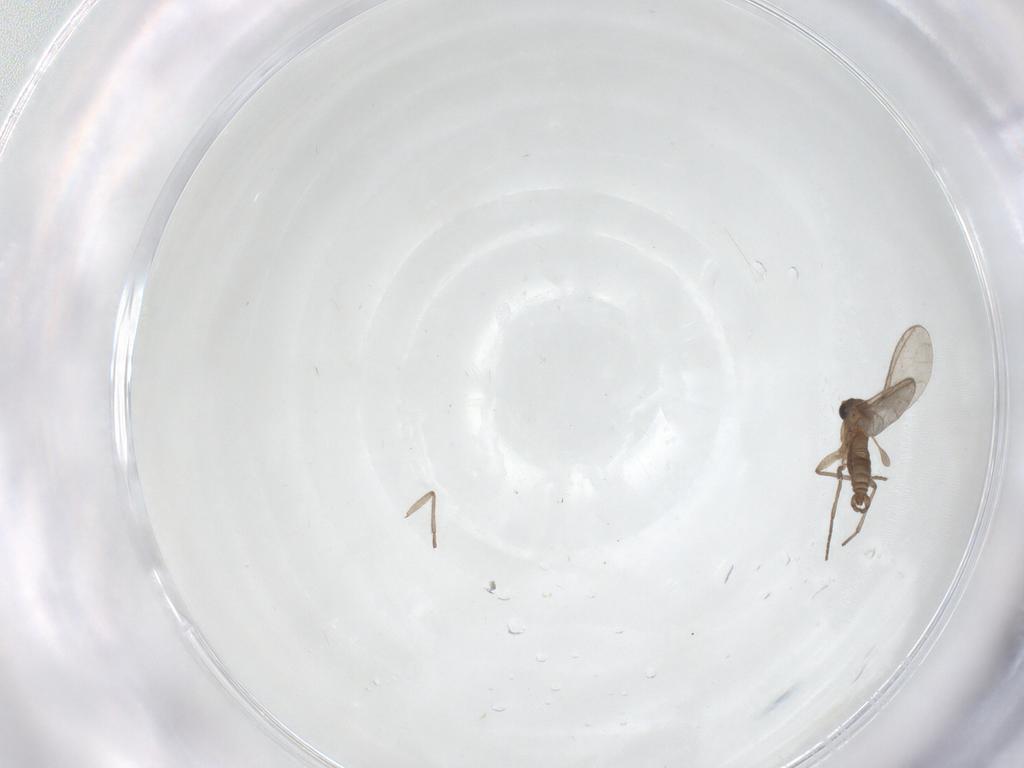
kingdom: Animalia
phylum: Arthropoda
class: Insecta
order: Diptera
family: Sciaridae
